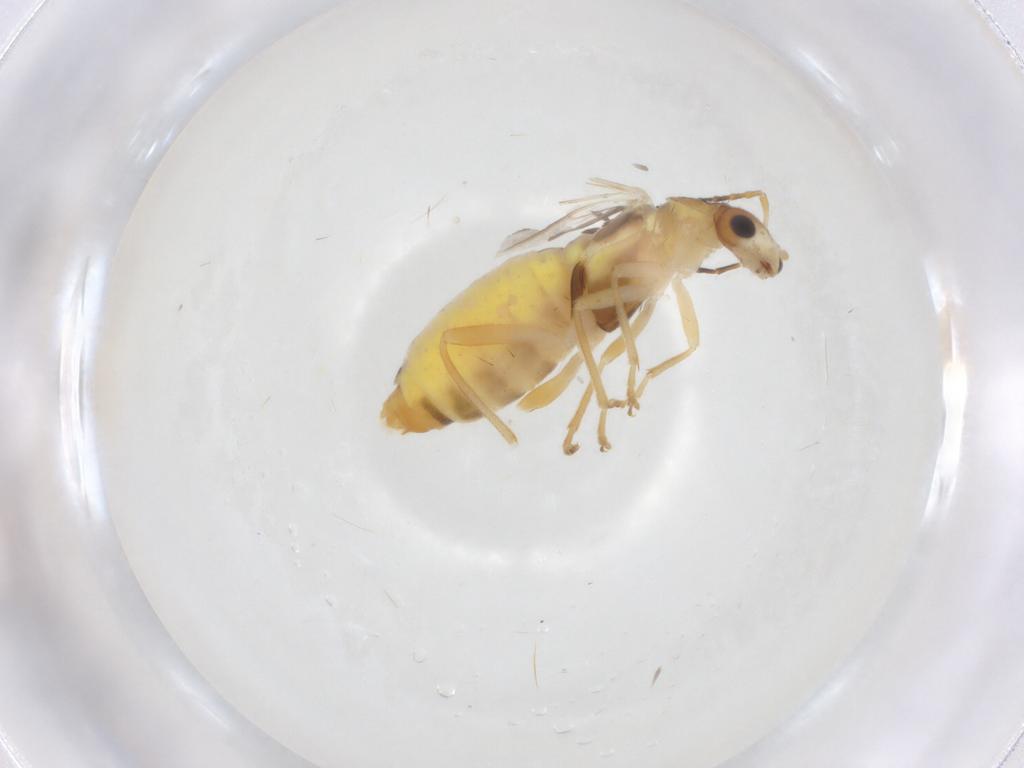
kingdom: Animalia
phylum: Arthropoda
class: Insecta
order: Coleoptera
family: Cantharidae
